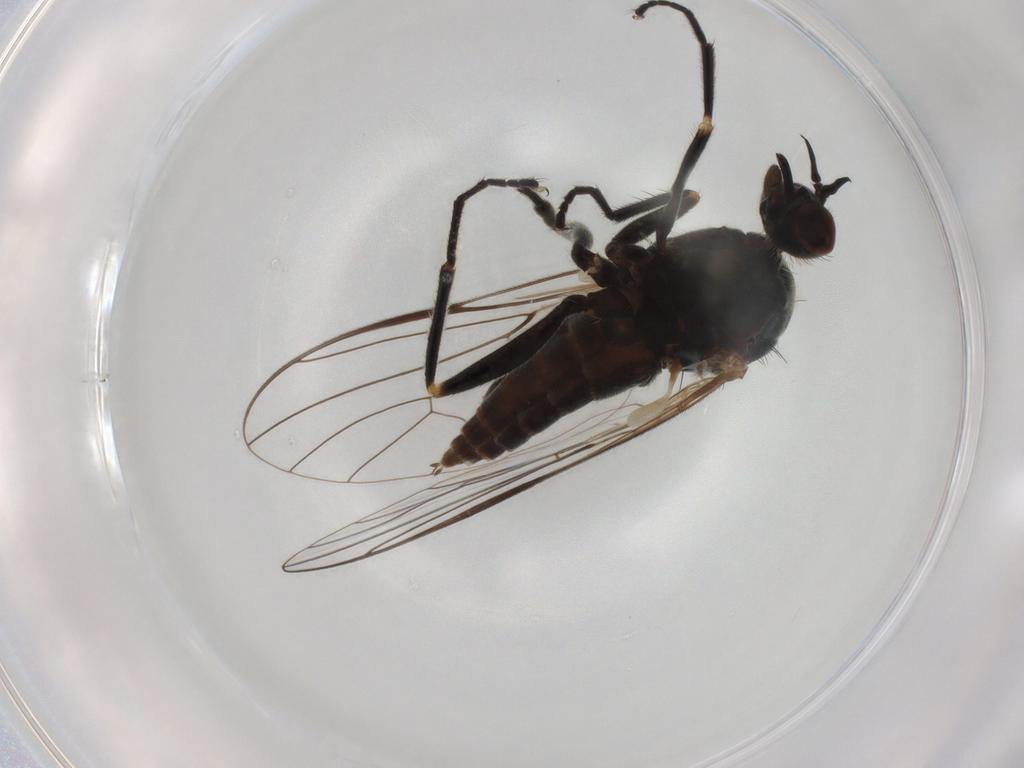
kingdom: Animalia
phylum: Arthropoda
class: Insecta
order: Diptera
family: Empididae
